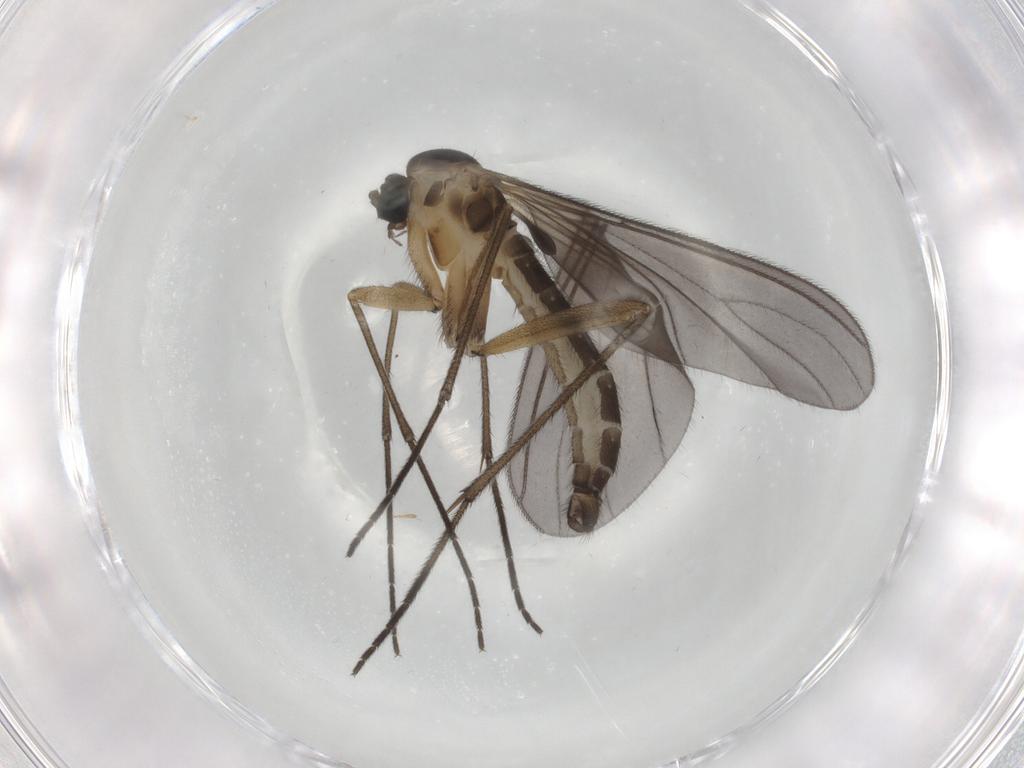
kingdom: Animalia
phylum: Arthropoda
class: Insecta
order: Diptera
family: Sciaridae
